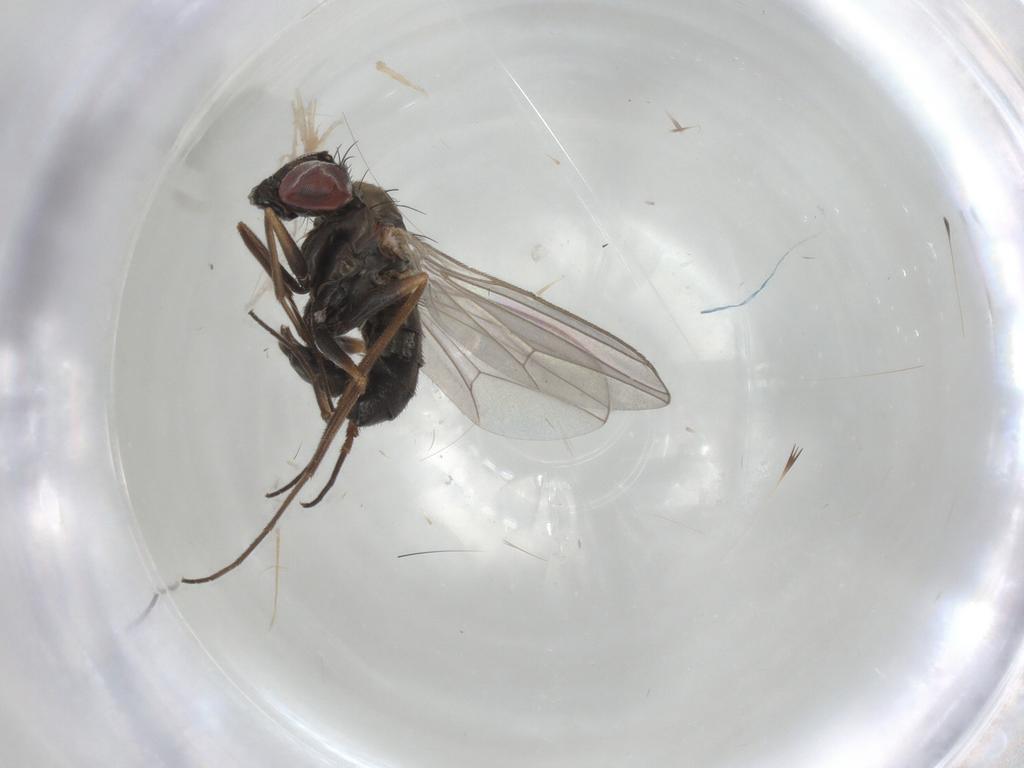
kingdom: Animalia
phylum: Arthropoda
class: Insecta
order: Diptera
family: Dolichopodidae
